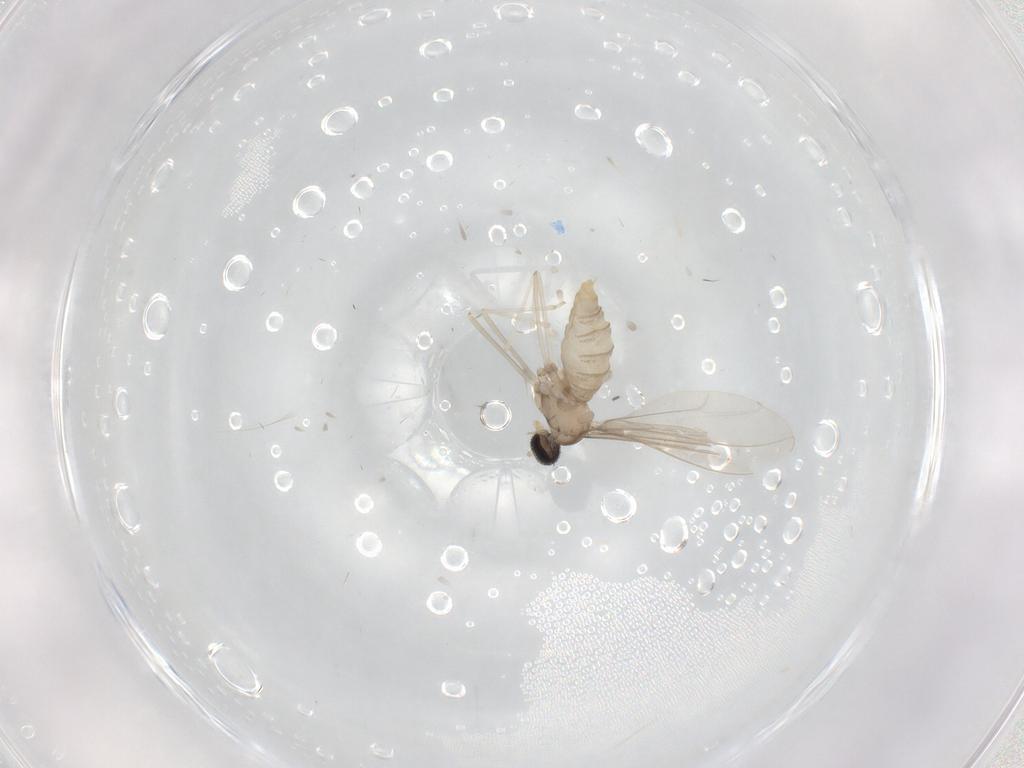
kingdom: Animalia
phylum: Arthropoda
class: Insecta
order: Diptera
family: Cecidomyiidae
